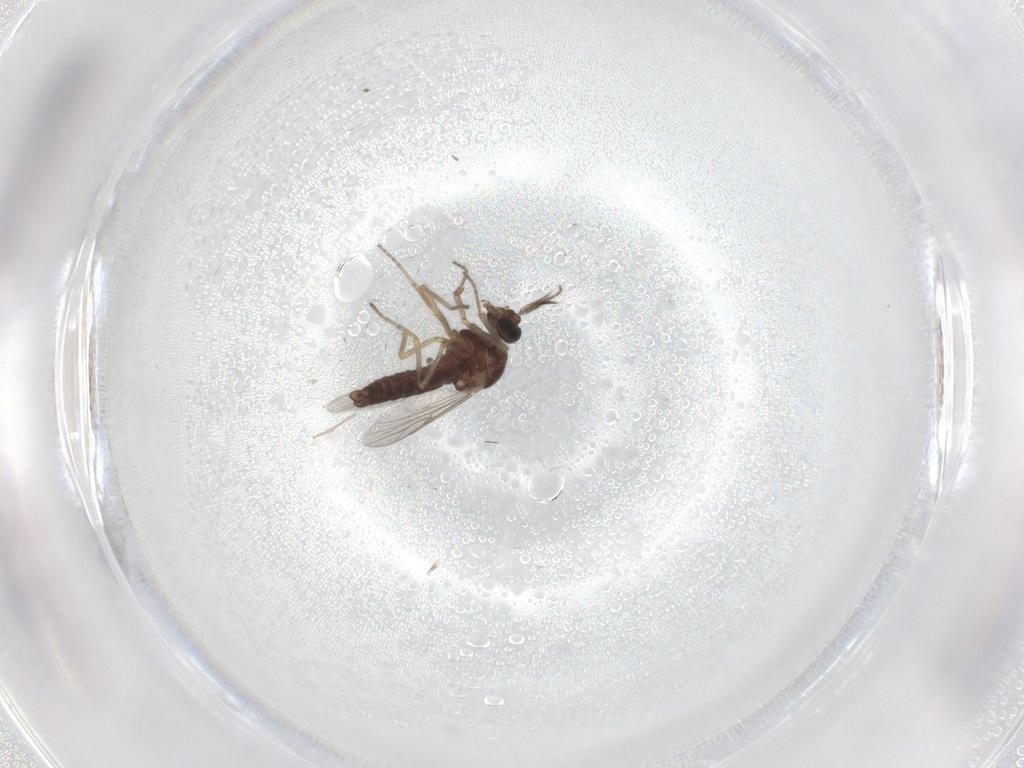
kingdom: Animalia
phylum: Arthropoda
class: Insecta
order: Diptera
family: Cecidomyiidae
